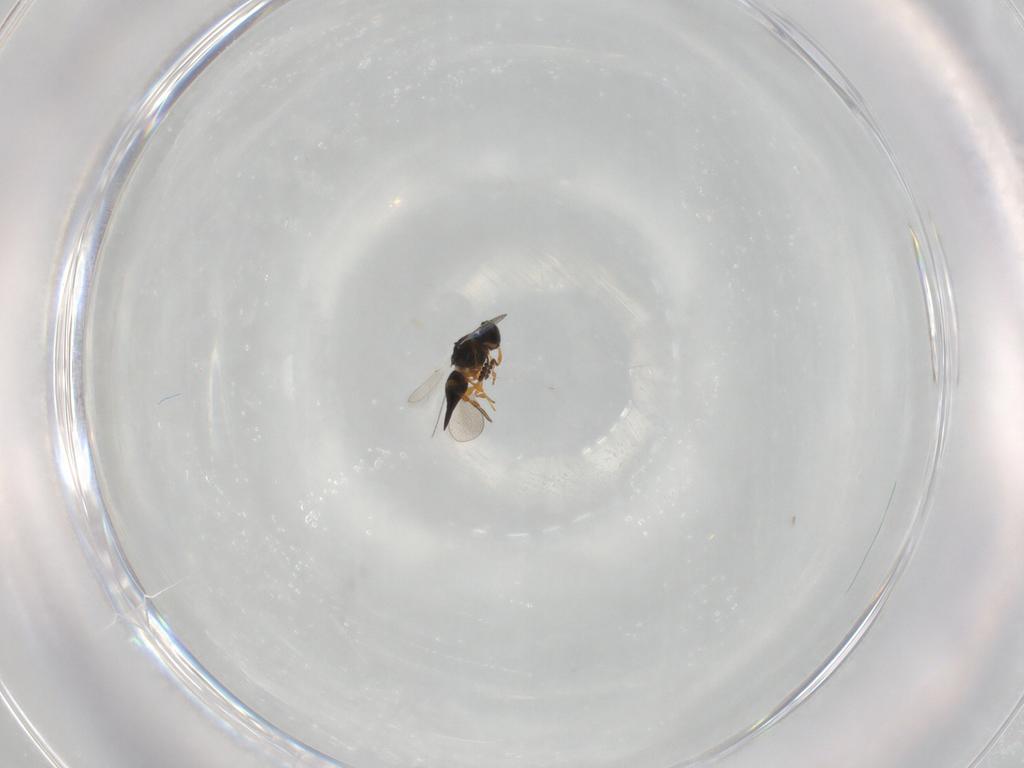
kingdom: Animalia
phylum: Arthropoda
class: Insecta
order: Hymenoptera
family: Platygastridae
